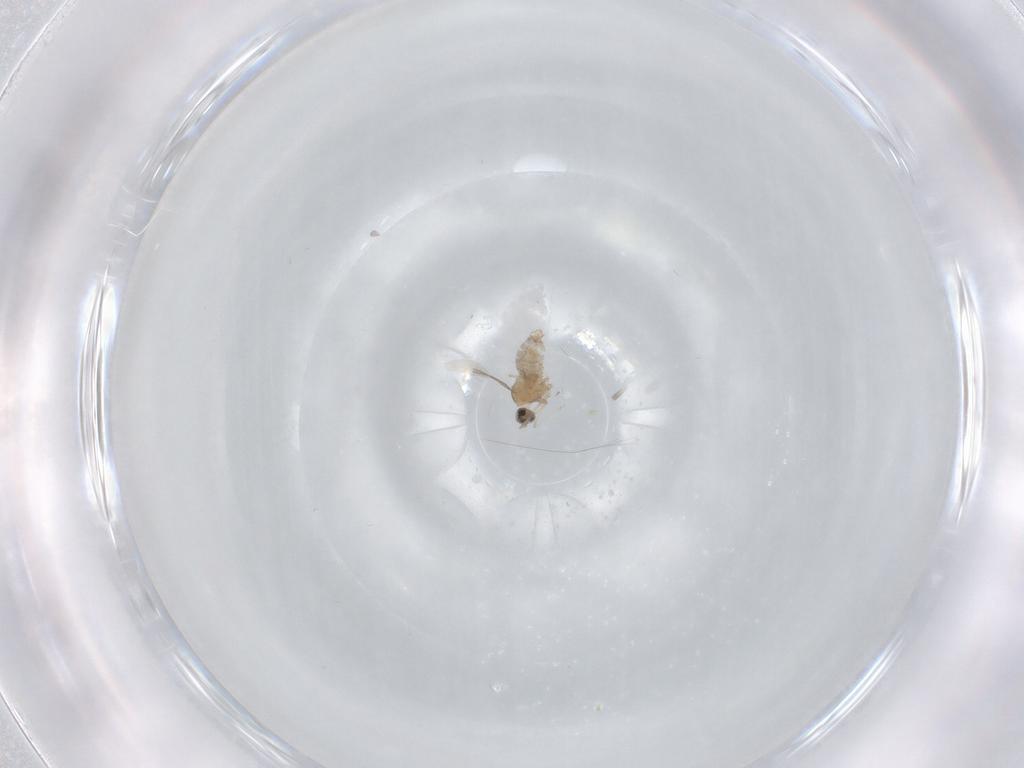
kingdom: Animalia
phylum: Arthropoda
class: Insecta
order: Diptera
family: Cecidomyiidae
